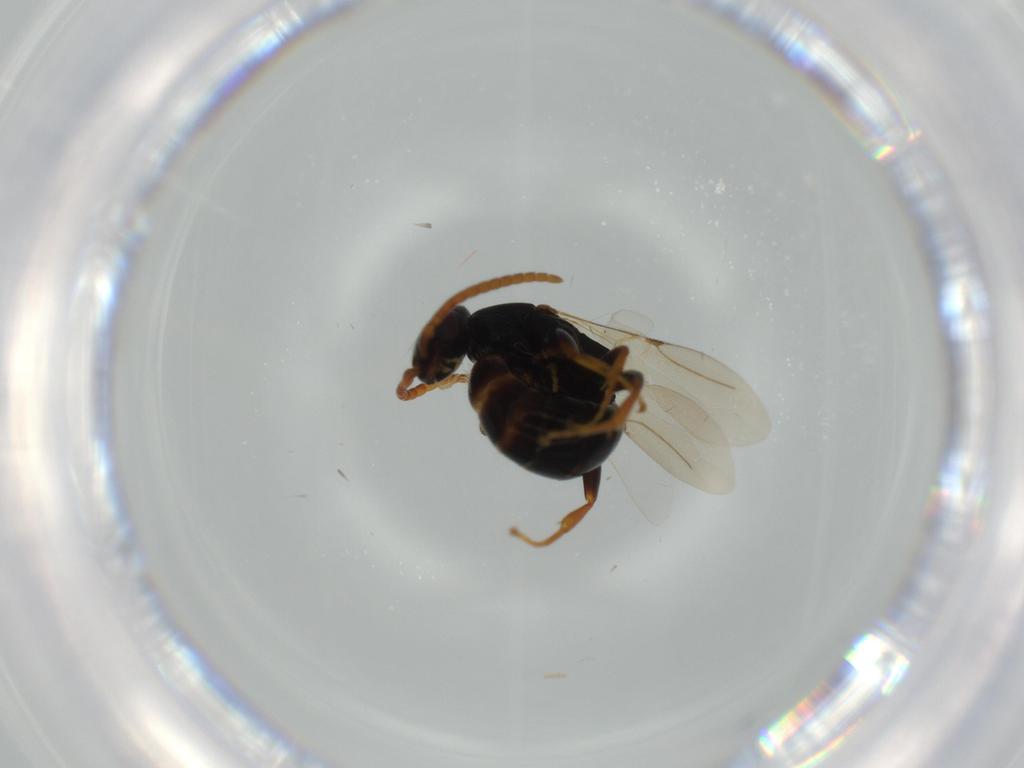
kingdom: Animalia
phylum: Arthropoda
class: Insecta
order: Hymenoptera
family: Bethylidae
